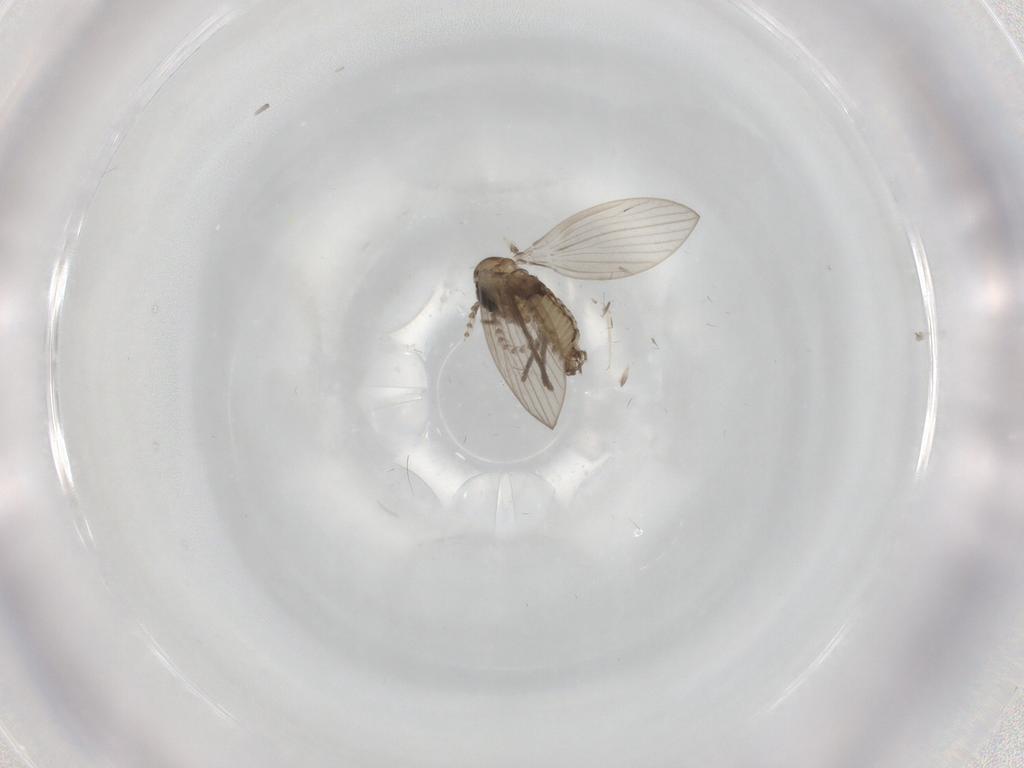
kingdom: Animalia
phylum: Arthropoda
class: Insecta
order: Diptera
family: Psychodidae
